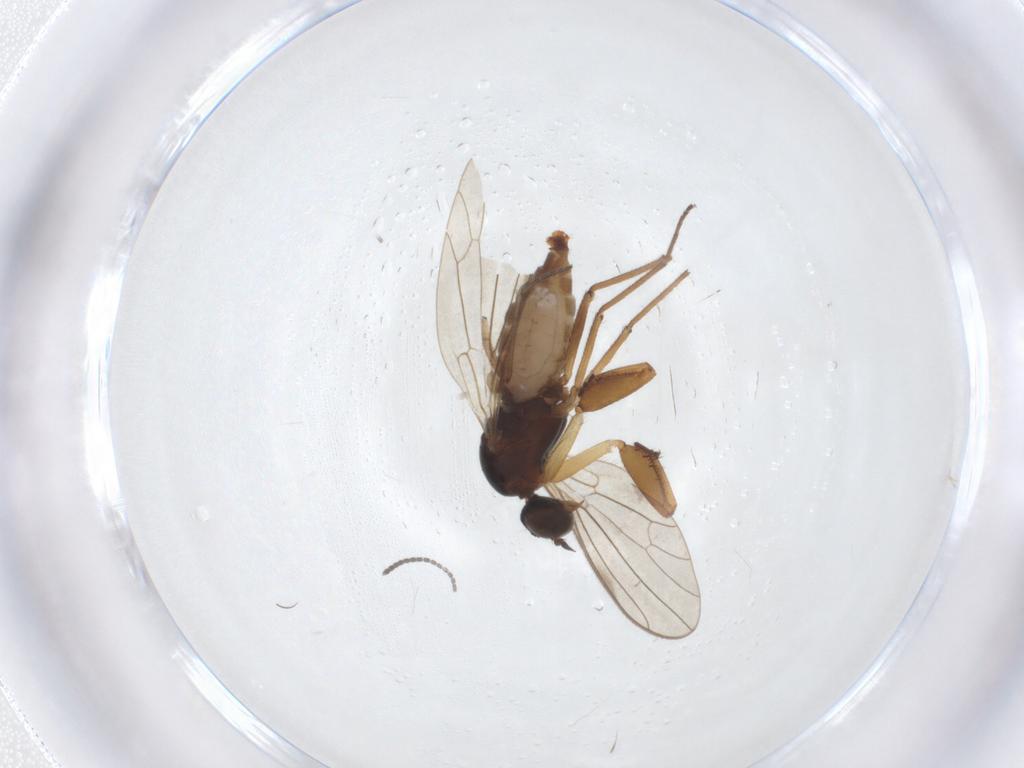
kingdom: Animalia
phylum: Arthropoda
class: Insecta
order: Diptera
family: Empididae
